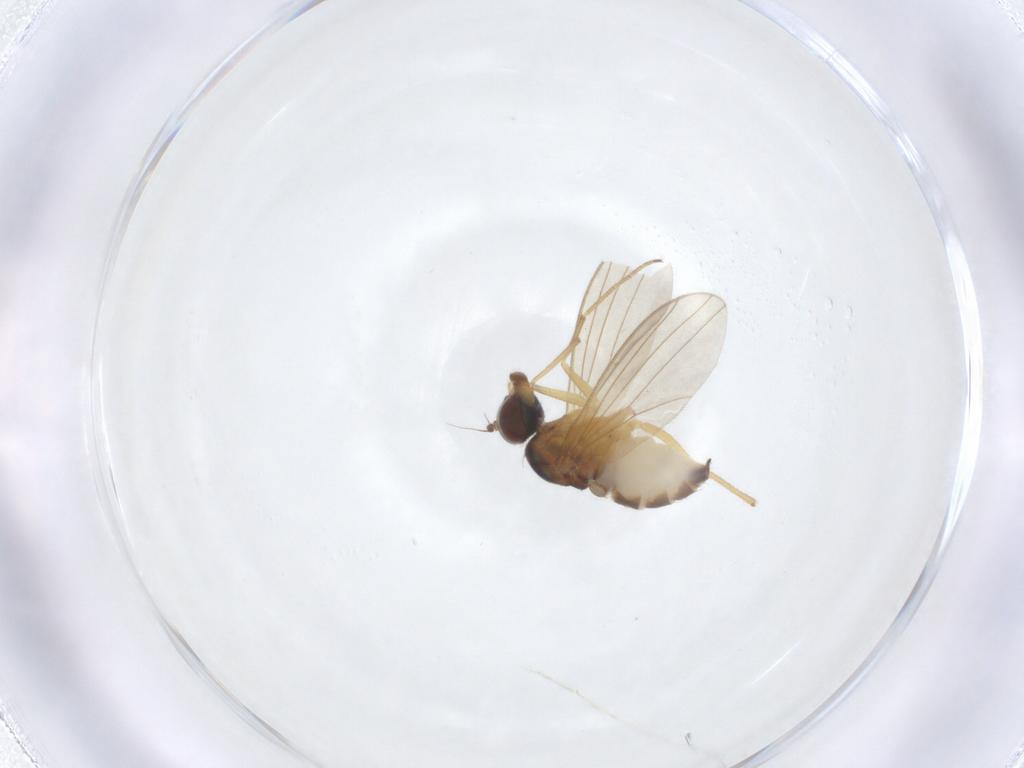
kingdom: Animalia
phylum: Arthropoda
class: Insecta
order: Diptera
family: Dolichopodidae
